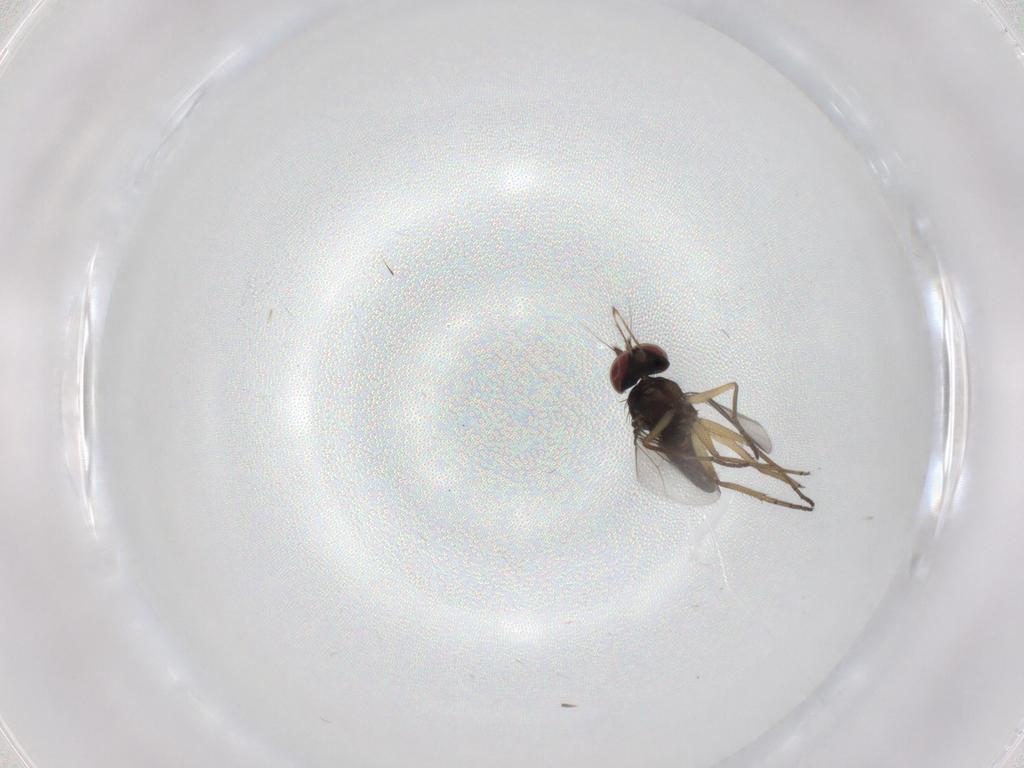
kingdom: Animalia
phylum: Arthropoda
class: Insecta
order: Diptera
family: Dolichopodidae
